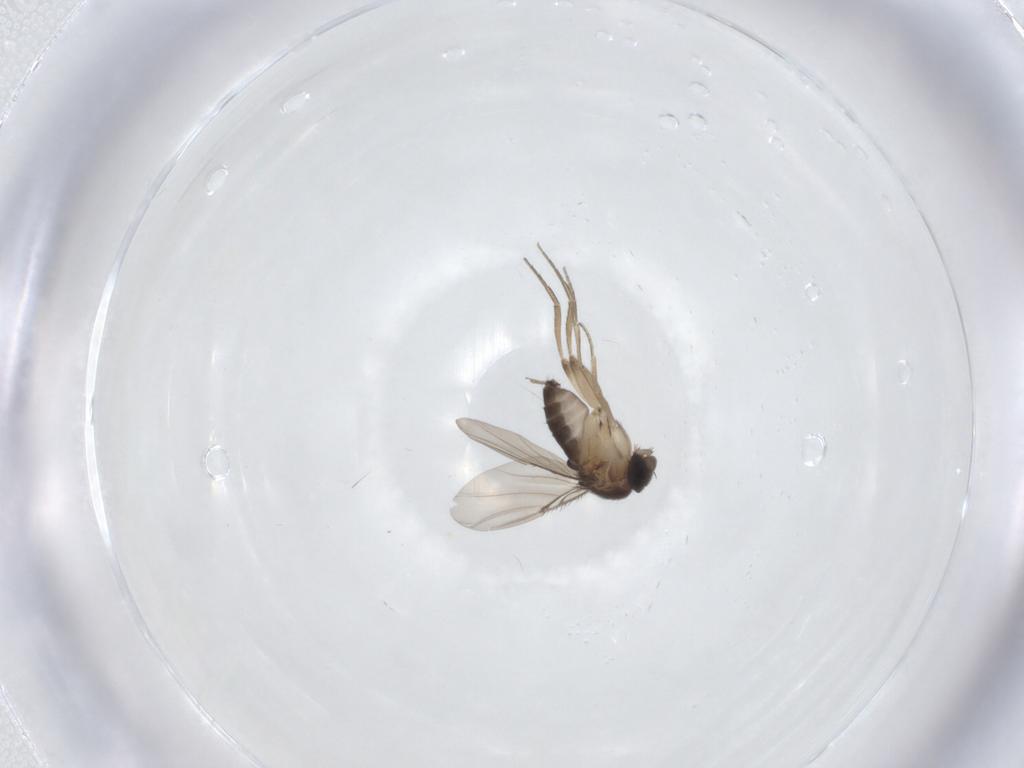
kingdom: Animalia
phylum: Arthropoda
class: Insecta
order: Diptera
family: Phoridae
